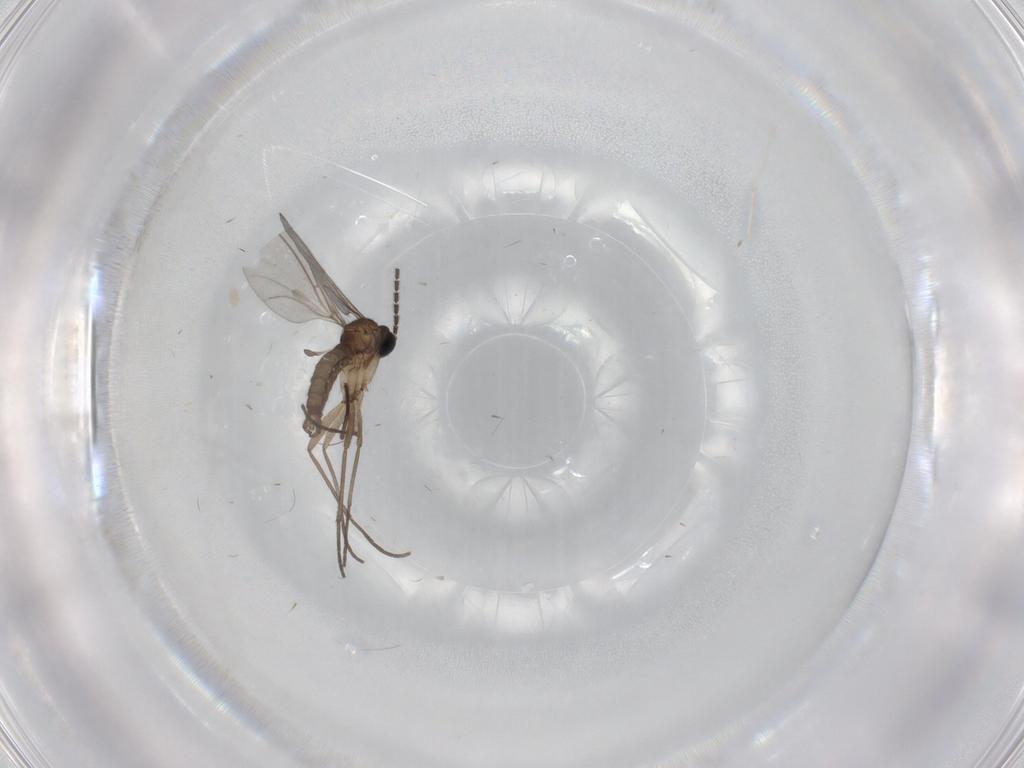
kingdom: Animalia
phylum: Arthropoda
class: Insecta
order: Diptera
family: Sciaridae
